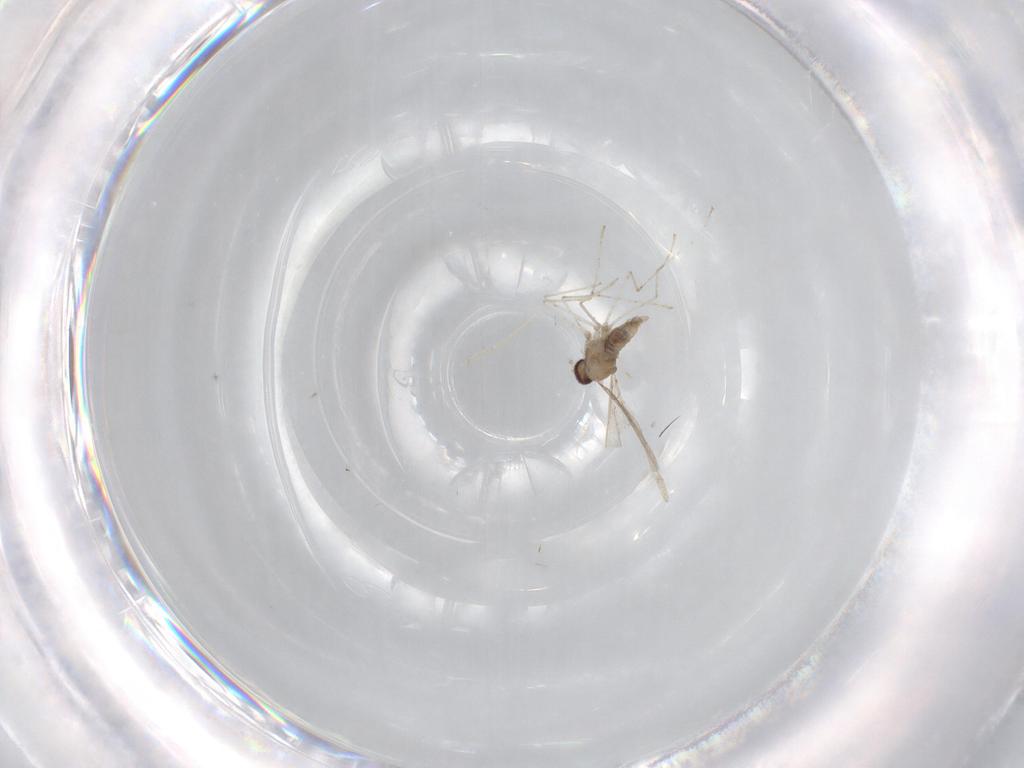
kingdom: Animalia
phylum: Arthropoda
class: Insecta
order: Diptera
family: Cecidomyiidae
